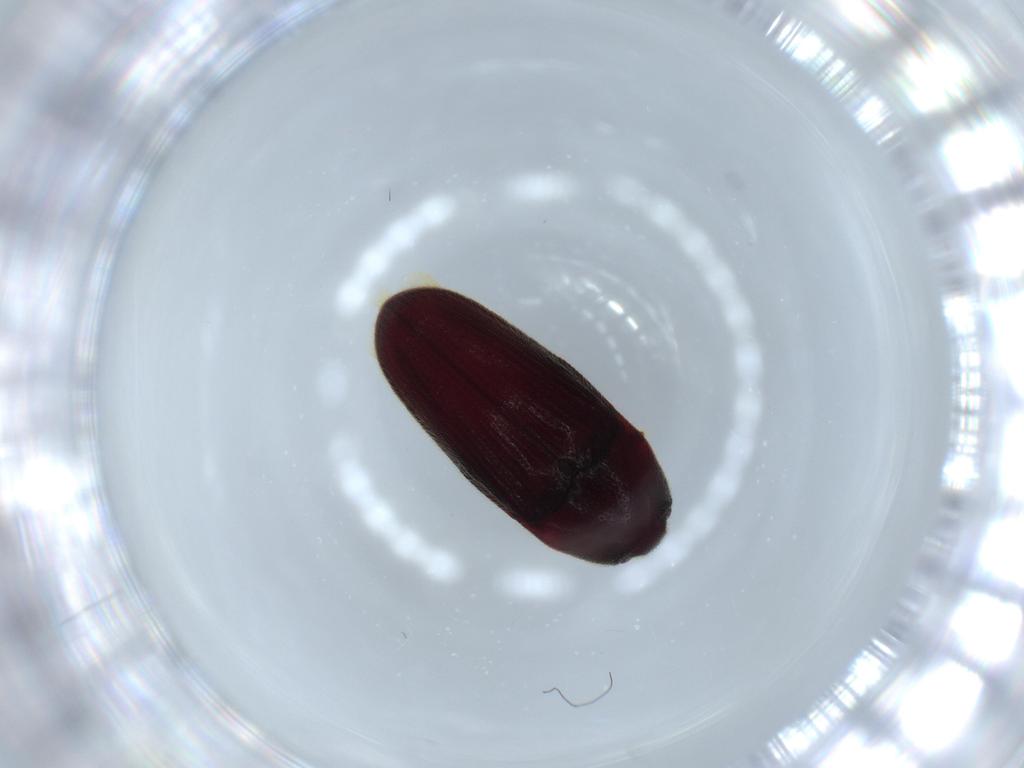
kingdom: Animalia
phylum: Arthropoda
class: Insecta
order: Coleoptera
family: Throscidae
